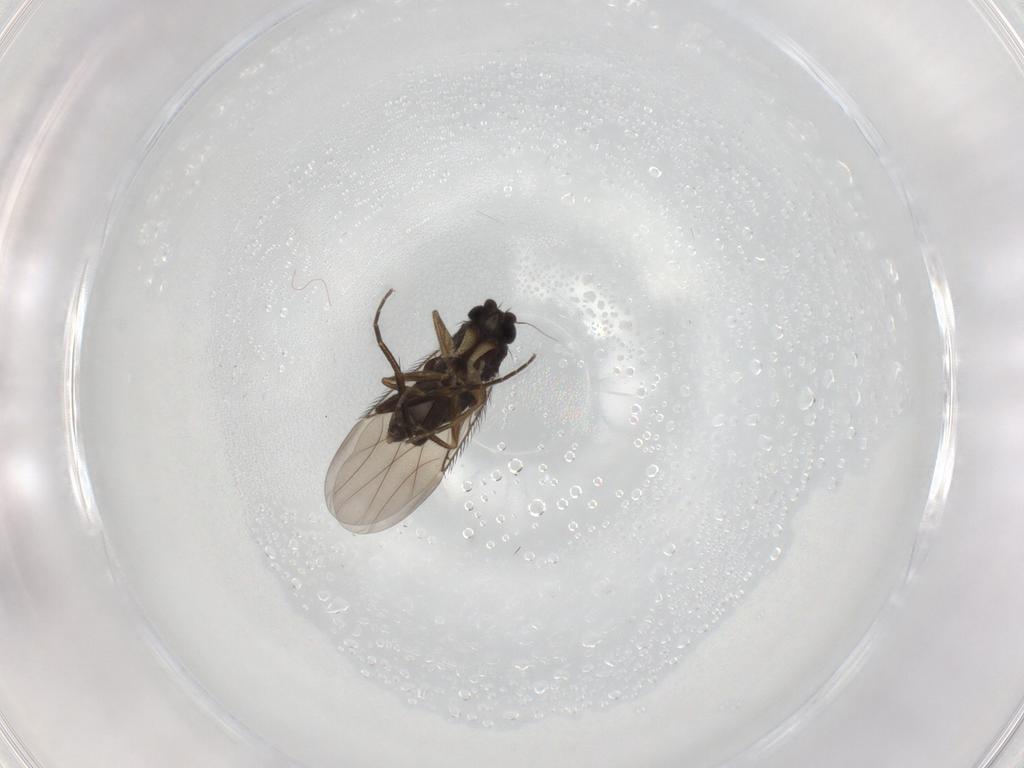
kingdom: Animalia
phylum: Arthropoda
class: Insecta
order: Diptera
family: Phoridae
